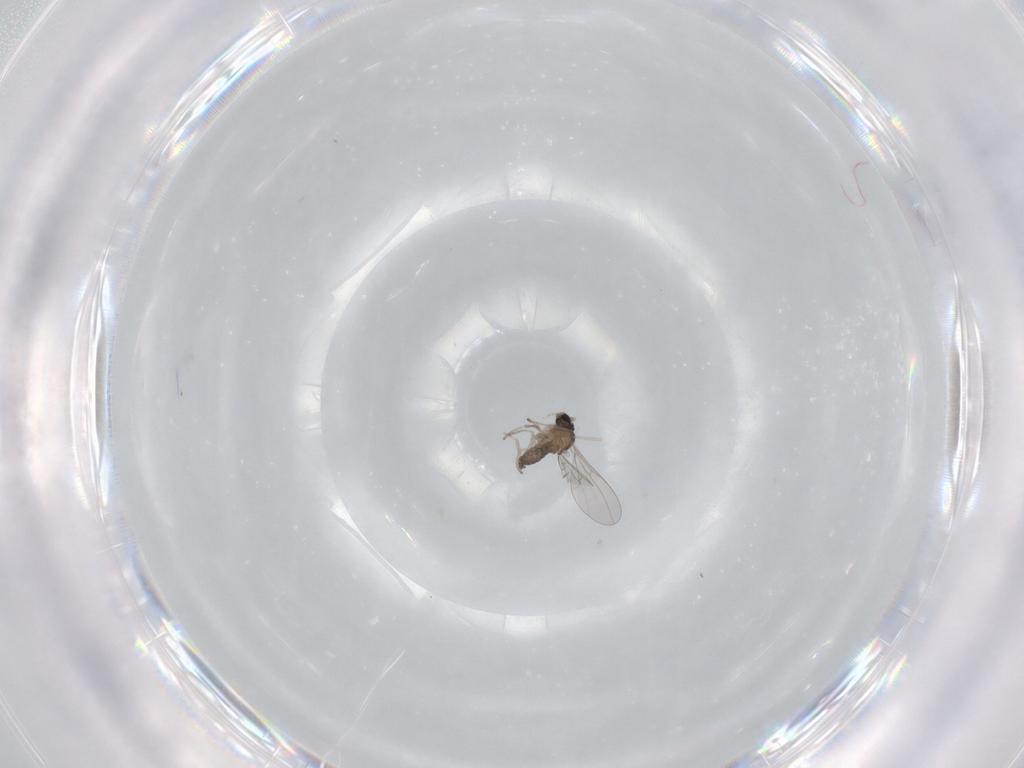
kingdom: Animalia
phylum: Arthropoda
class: Insecta
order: Diptera
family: Cecidomyiidae
